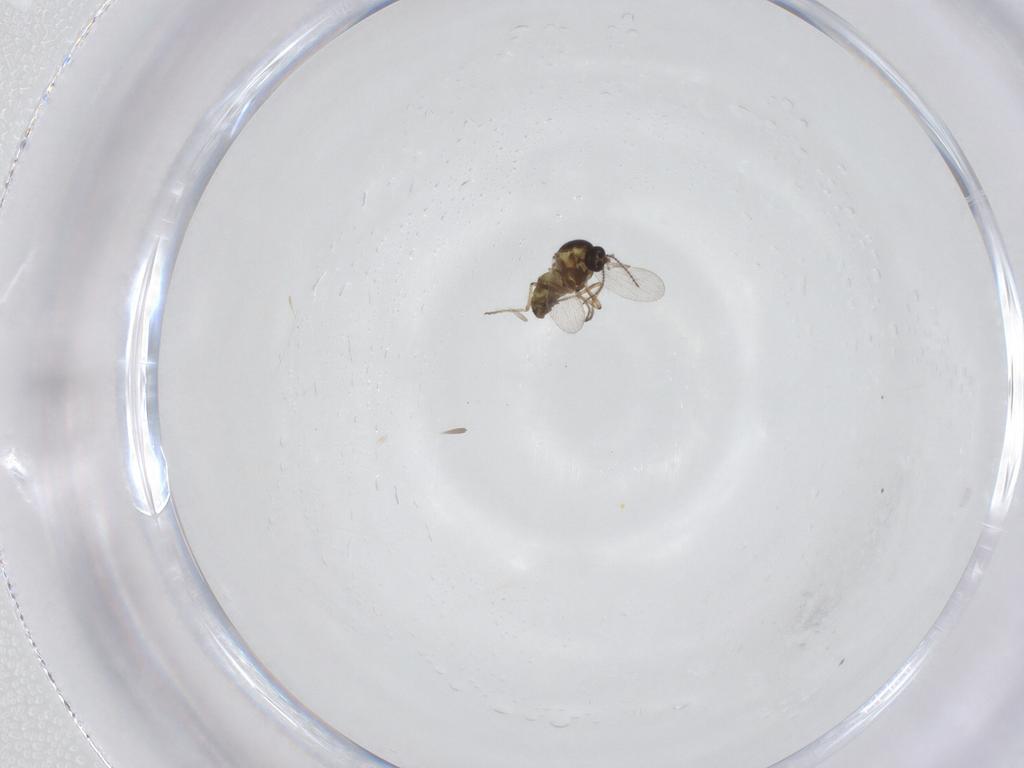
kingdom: Animalia
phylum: Arthropoda
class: Insecta
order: Diptera
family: Ceratopogonidae
